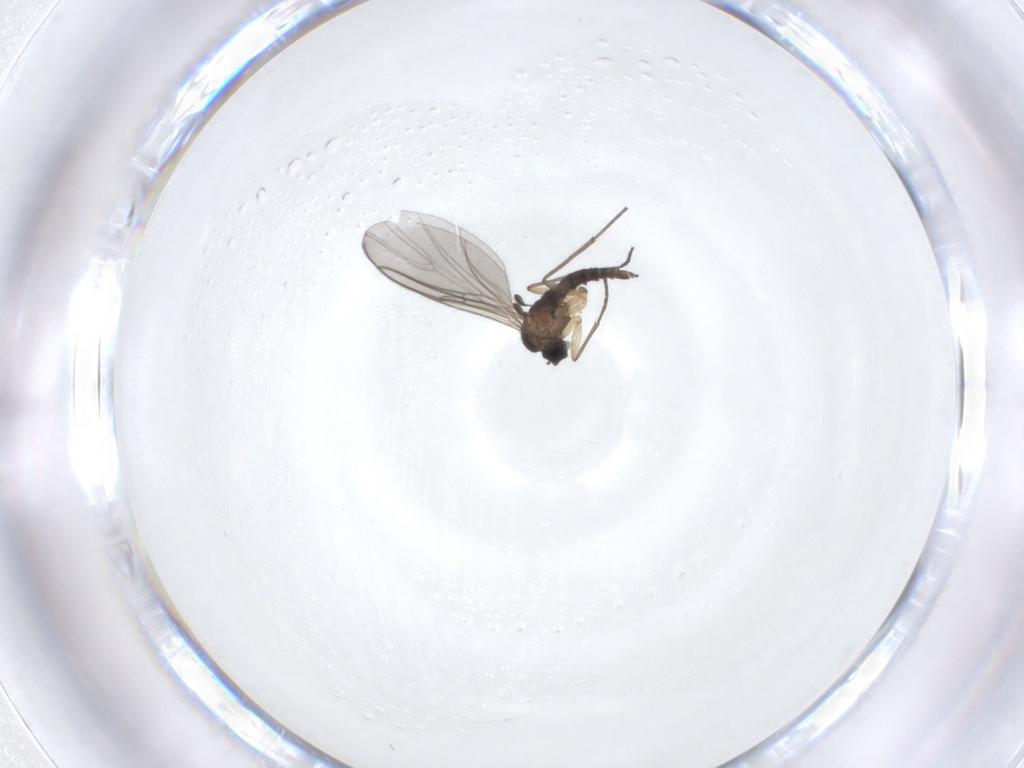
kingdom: Animalia
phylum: Arthropoda
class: Insecta
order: Diptera
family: Sciaridae
